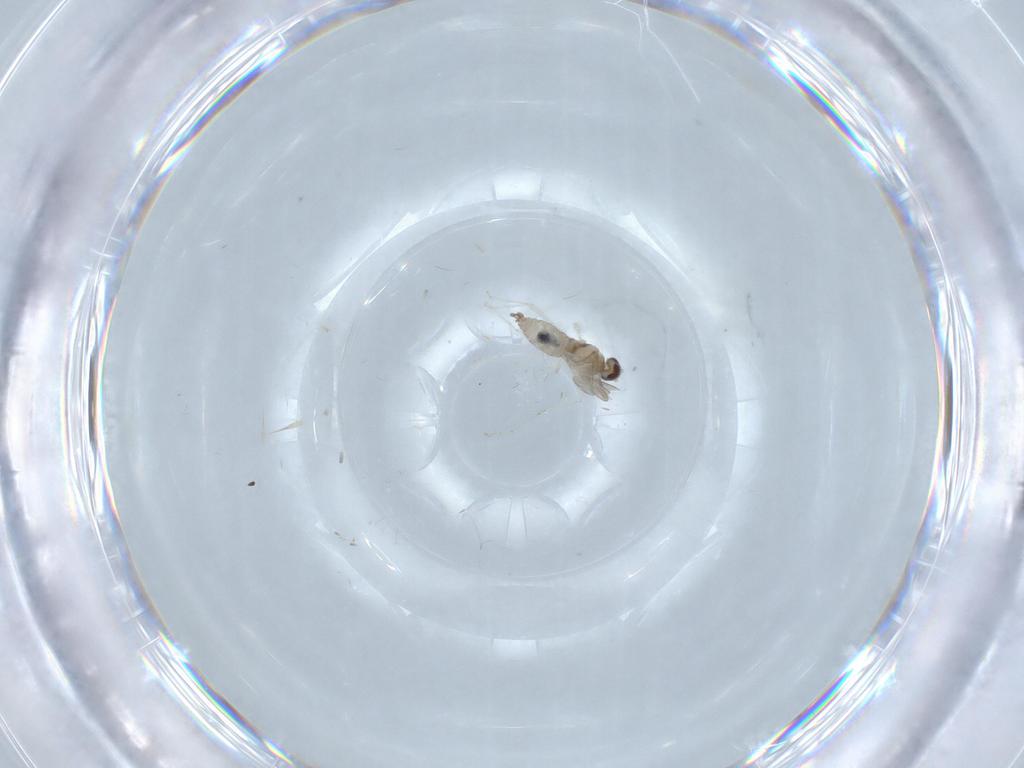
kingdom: Animalia
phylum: Arthropoda
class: Insecta
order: Diptera
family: Cecidomyiidae
